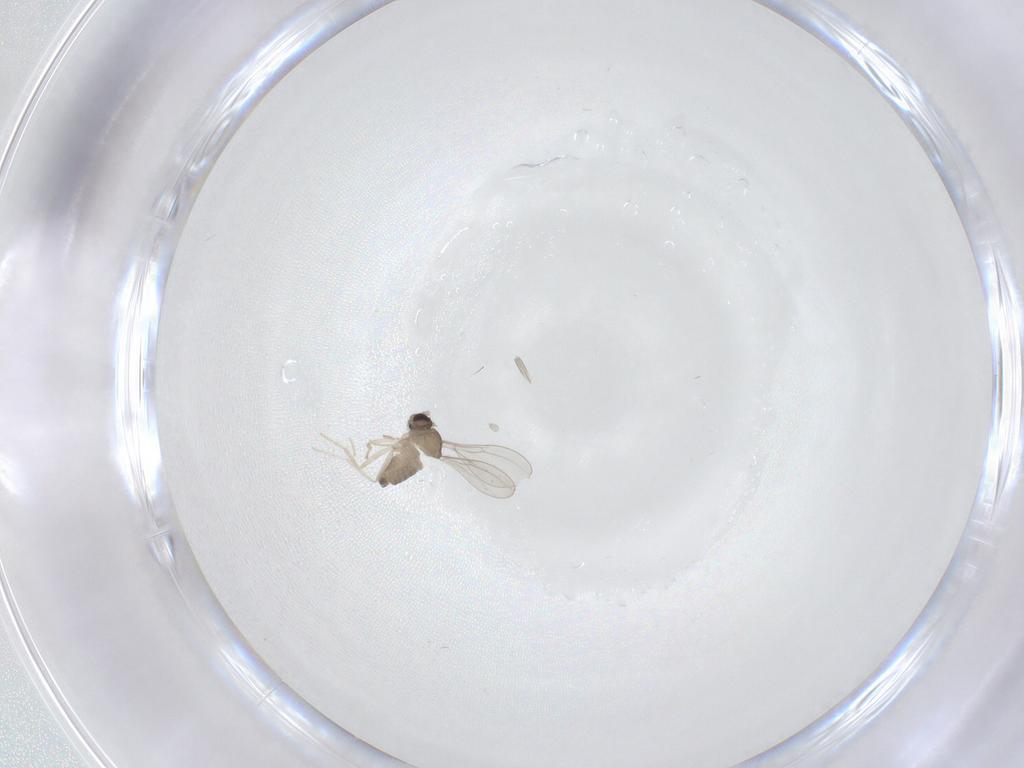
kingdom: Animalia
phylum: Arthropoda
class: Insecta
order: Diptera
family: Cecidomyiidae
